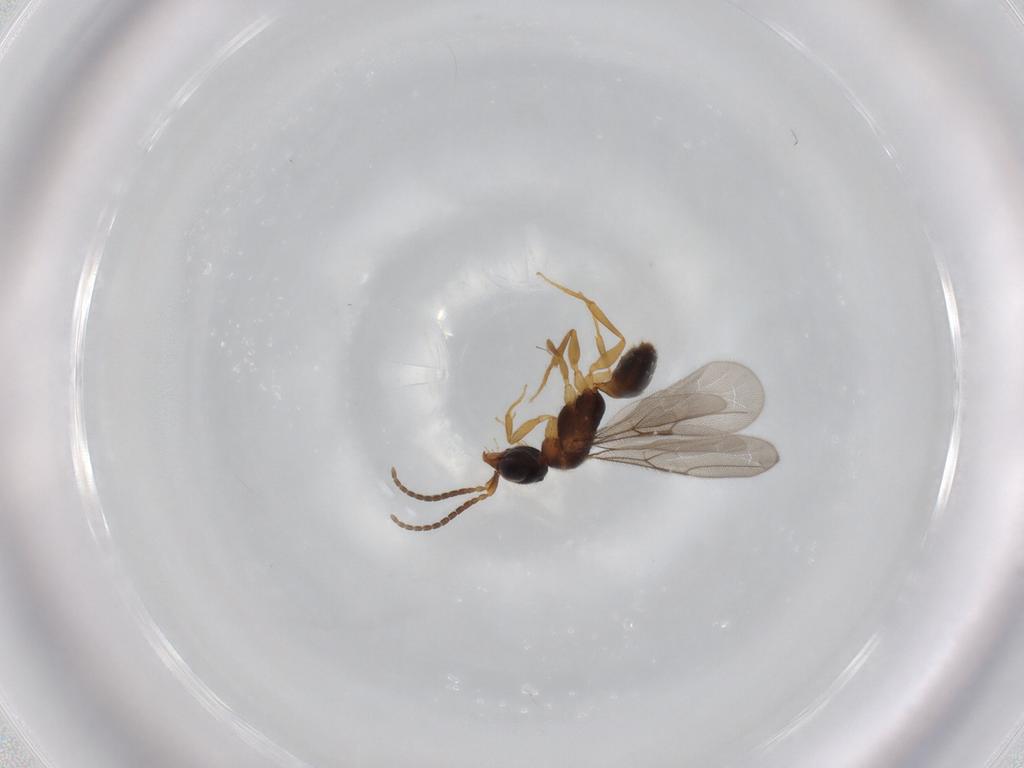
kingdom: Animalia
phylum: Arthropoda
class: Insecta
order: Hymenoptera
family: Bethylidae
